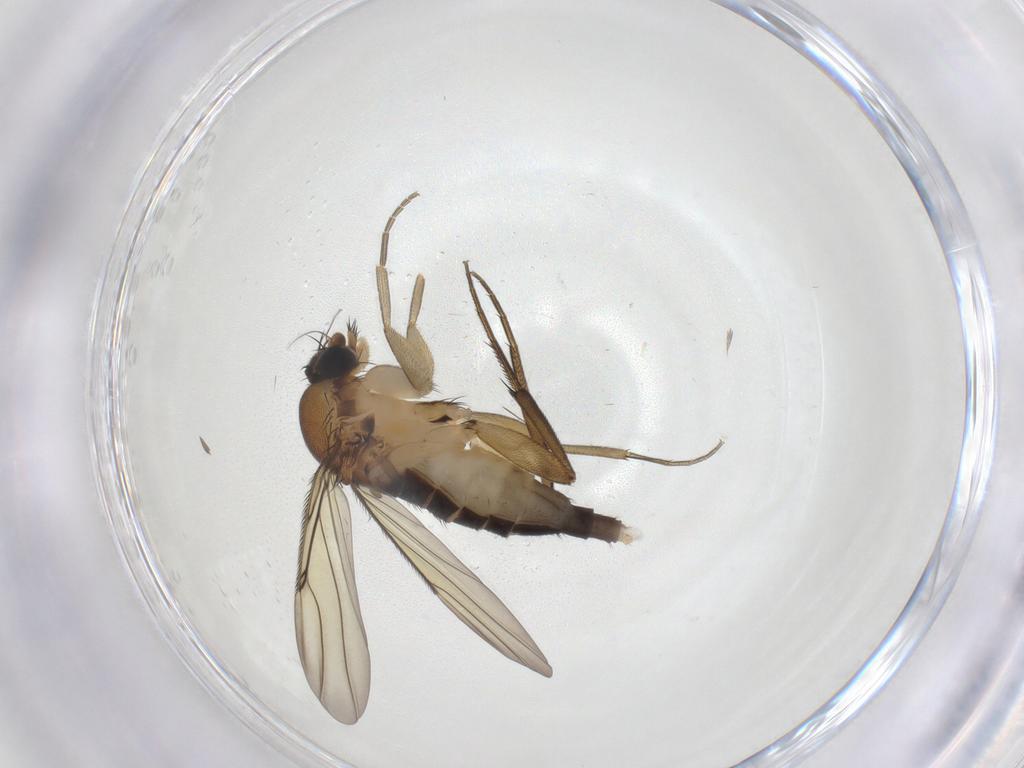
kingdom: Animalia
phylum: Arthropoda
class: Insecta
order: Diptera
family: Phoridae
